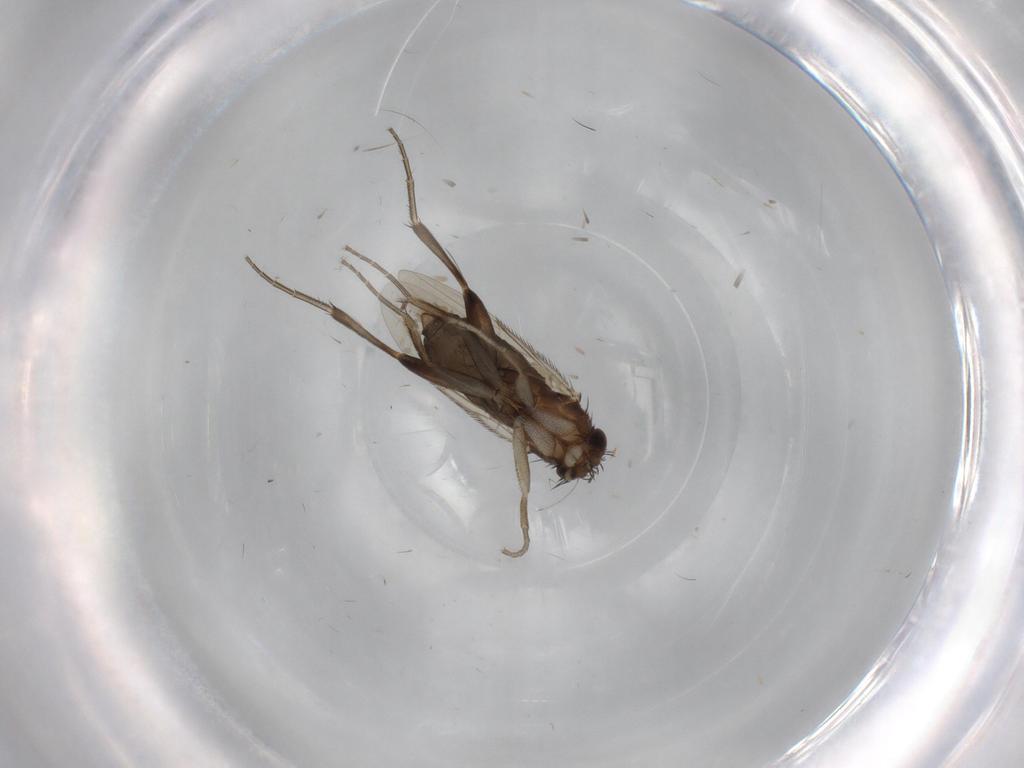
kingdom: Animalia
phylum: Arthropoda
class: Insecta
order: Diptera
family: Phoridae
